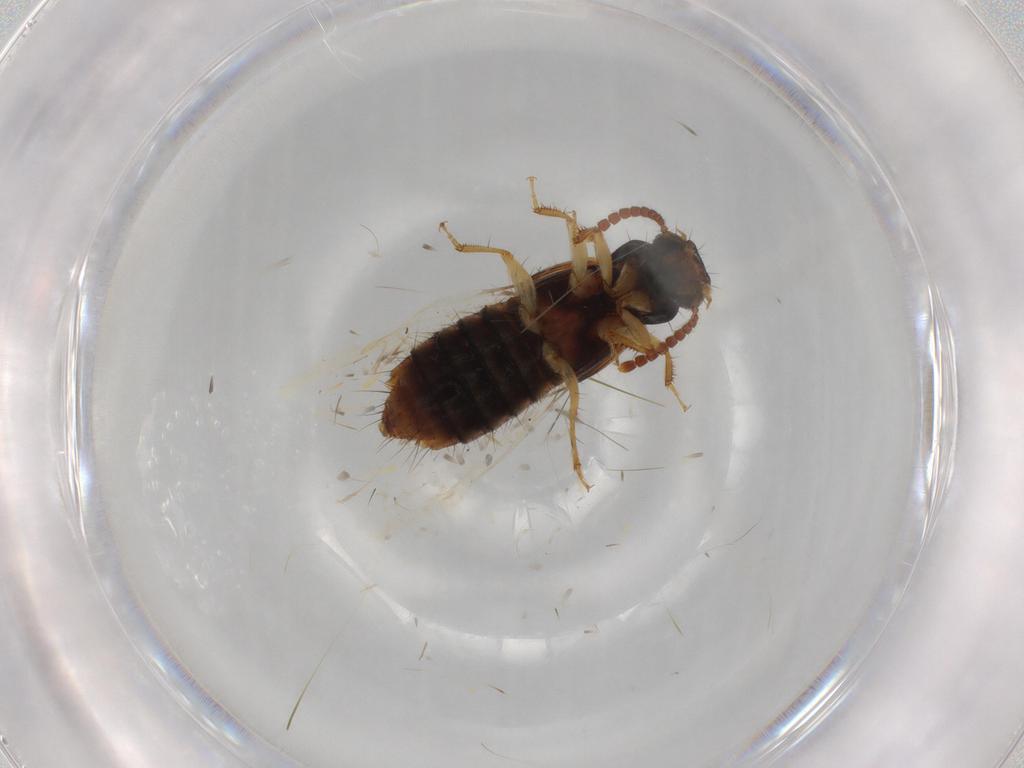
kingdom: Animalia
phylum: Arthropoda
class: Insecta
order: Coleoptera
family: Staphylinidae
